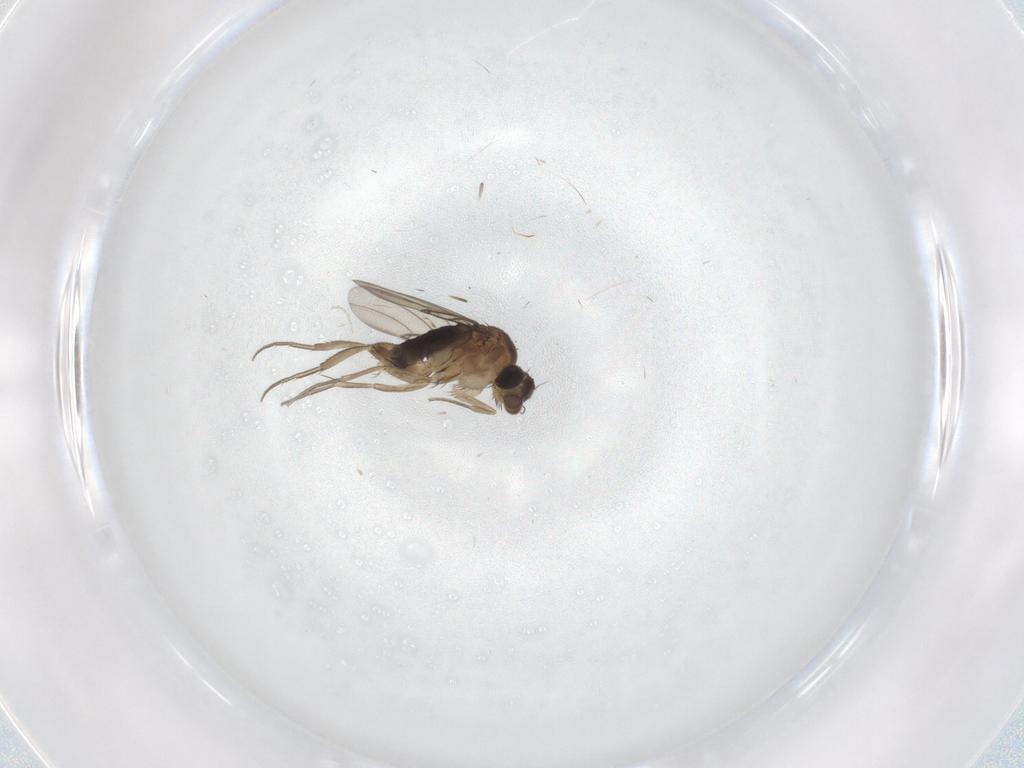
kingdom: Animalia
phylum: Arthropoda
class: Insecta
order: Diptera
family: Phoridae
